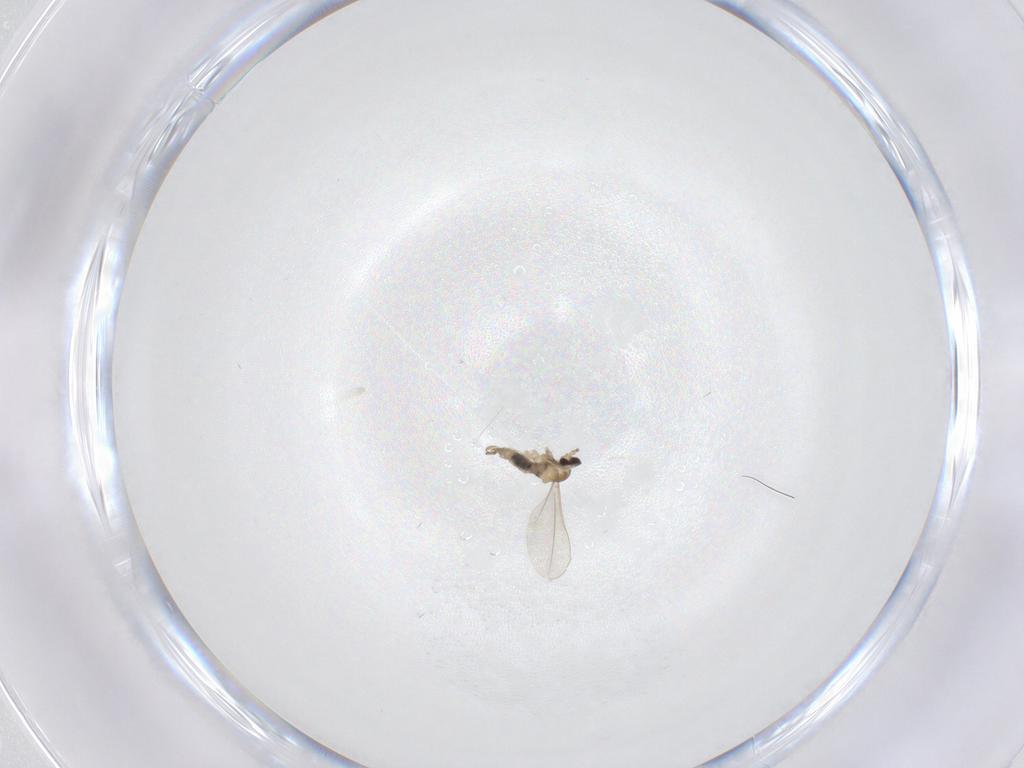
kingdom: Animalia
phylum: Arthropoda
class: Insecta
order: Diptera
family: Cecidomyiidae
